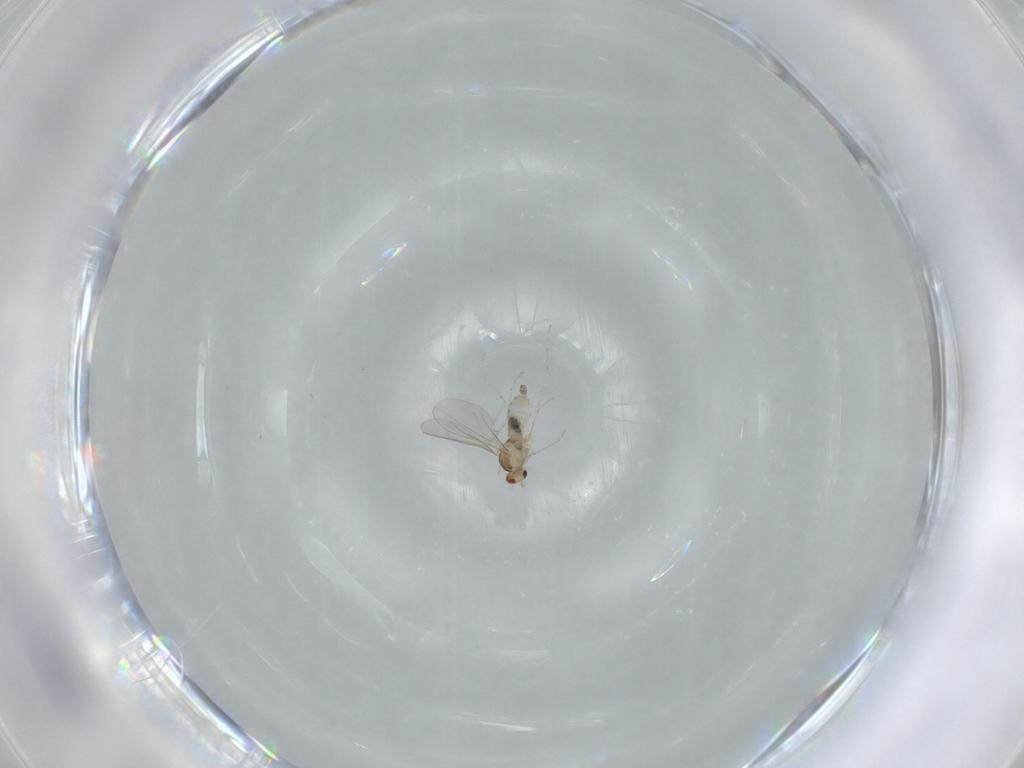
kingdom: Animalia
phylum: Arthropoda
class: Insecta
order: Diptera
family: Cecidomyiidae
